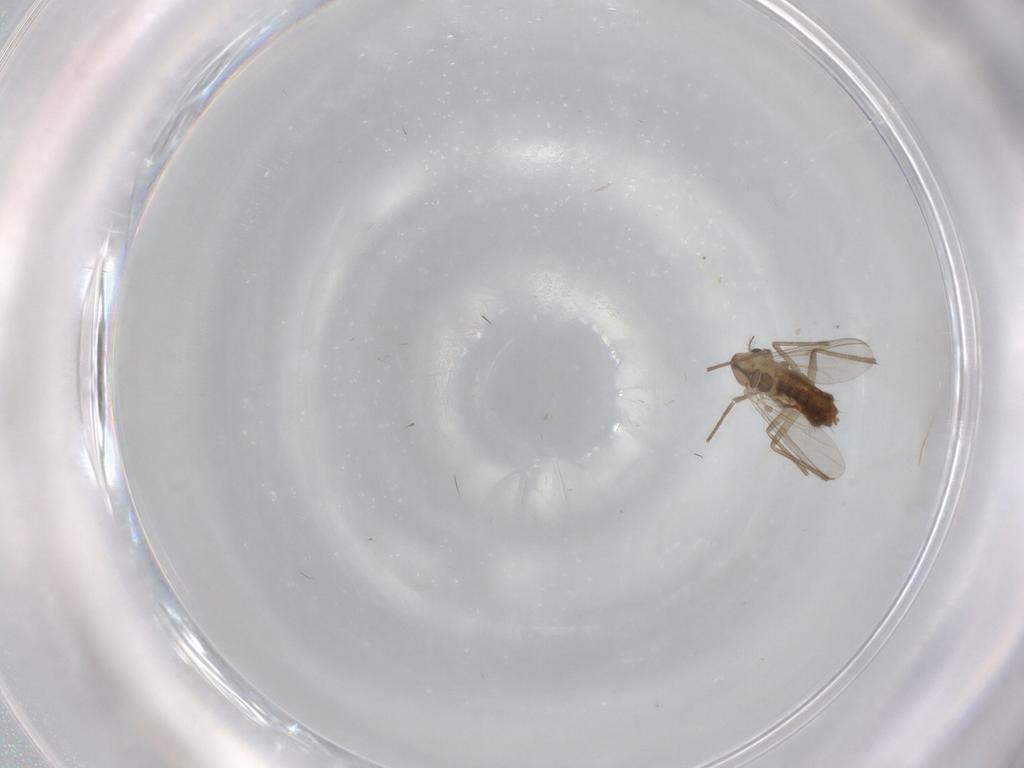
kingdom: Animalia
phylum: Arthropoda
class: Insecta
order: Diptera
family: Chironomidae
